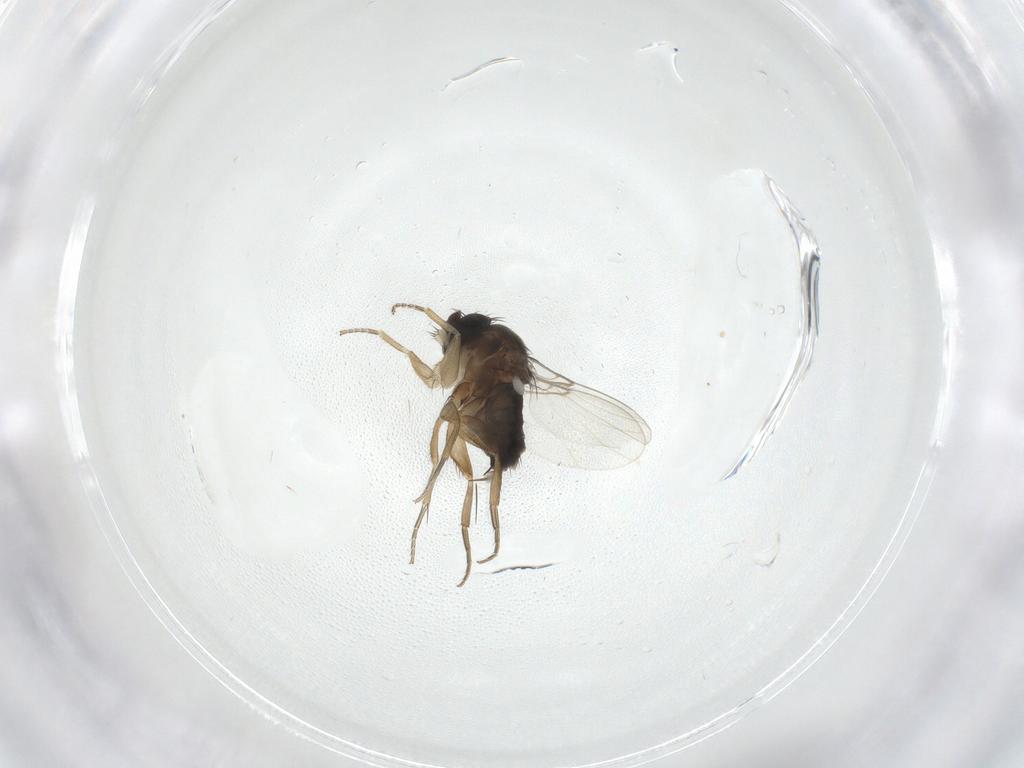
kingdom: Animalia
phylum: Arthropoda
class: Insecta
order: Diptera
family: Phoridae
